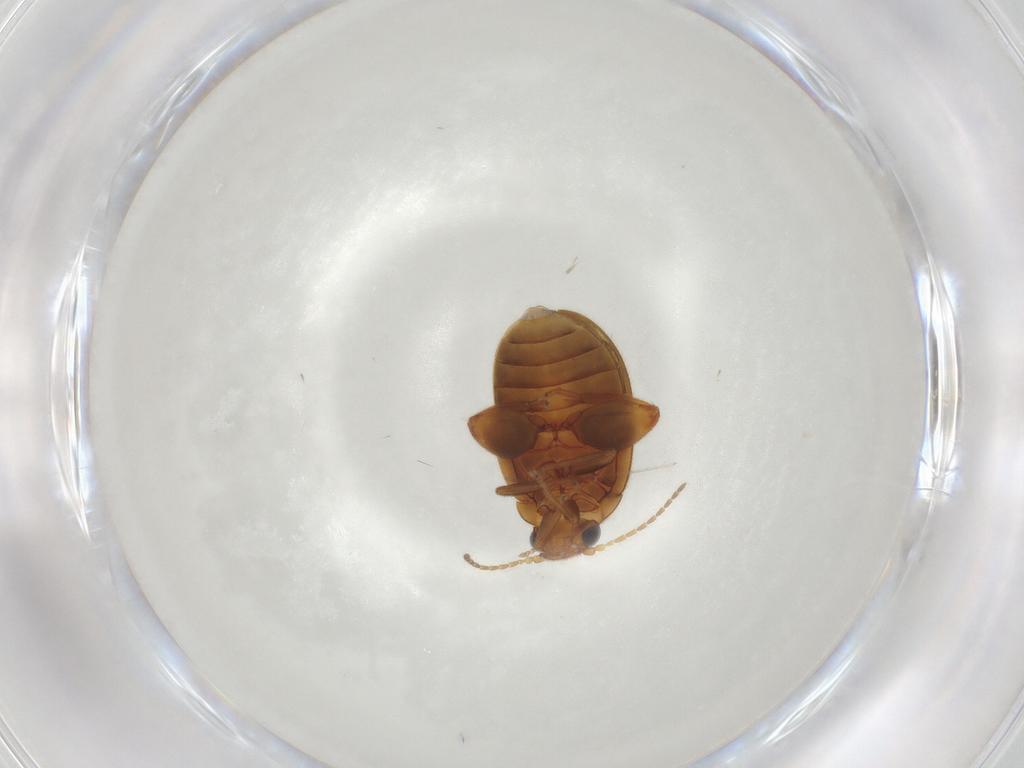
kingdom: Animalia
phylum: Arthropoda
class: Insecta
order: Coleoptera
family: Scirtidae
